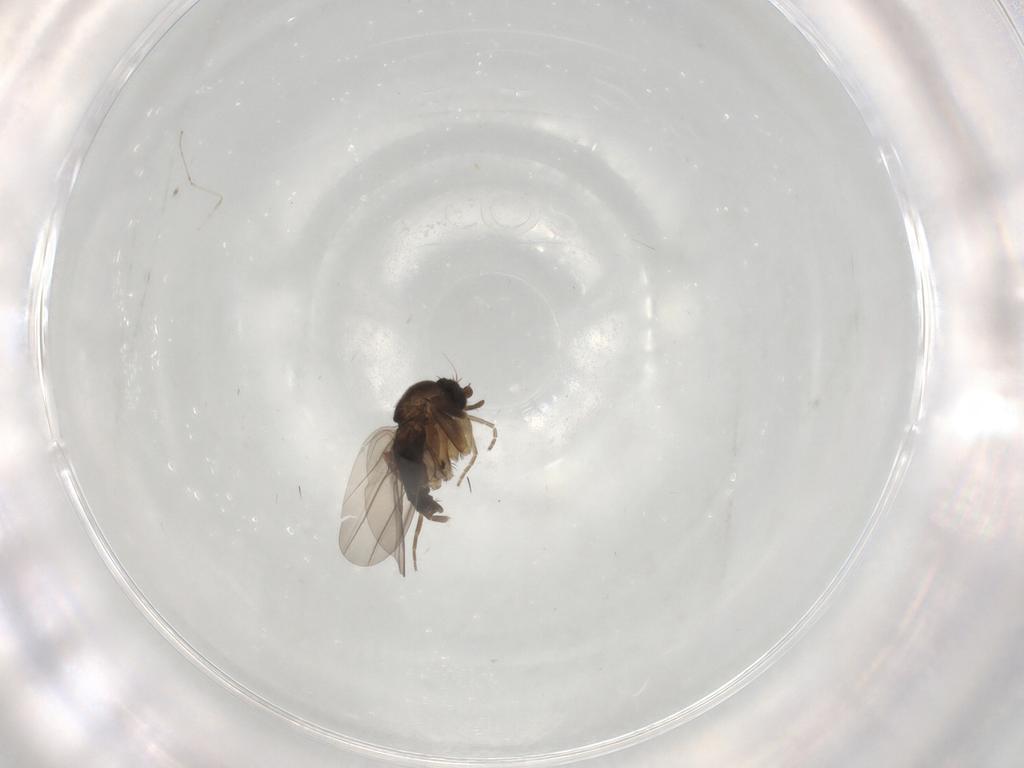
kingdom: Animalia
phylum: Arthropoda
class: Insecta
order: Diptera
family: Phoridae
